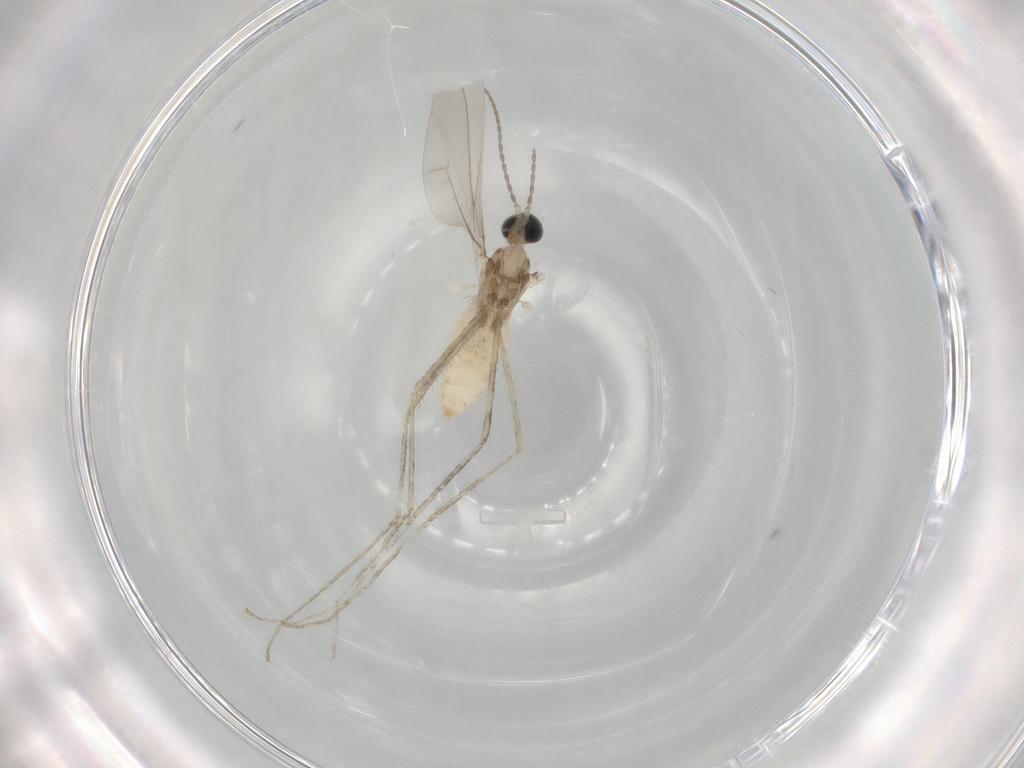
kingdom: Animalia
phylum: Arthropoda
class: Insecta
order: Diptera
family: Cecidomyiidae
